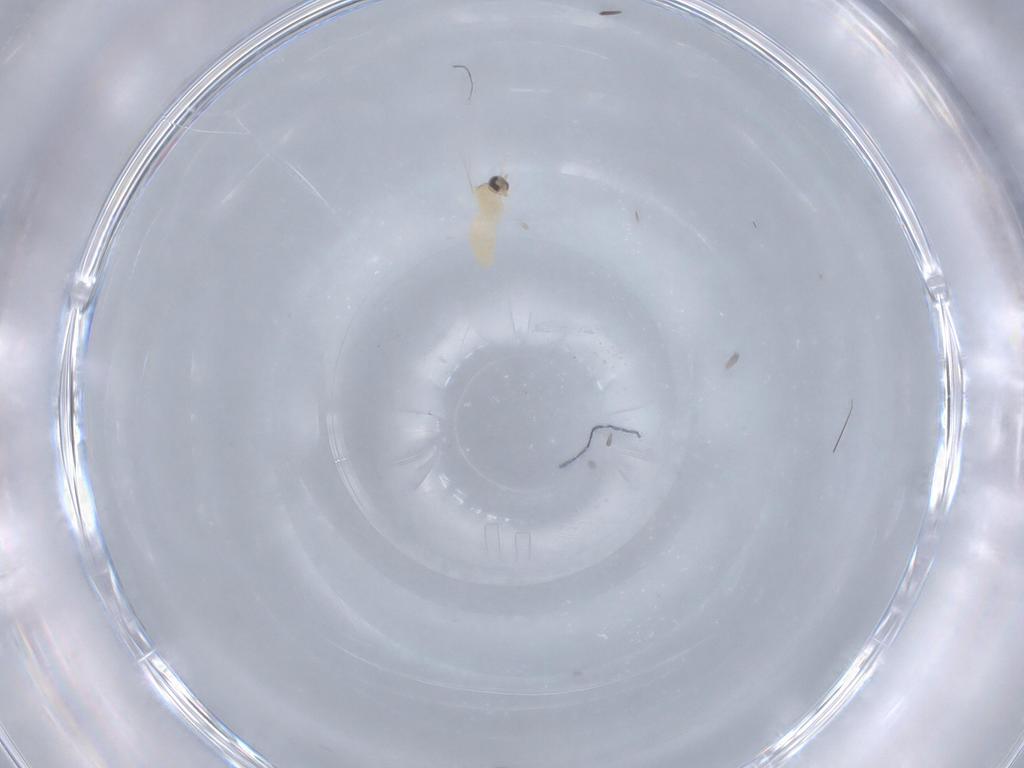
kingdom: Animalia
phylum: Arthropoda
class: Insecta
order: Diptera
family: Cecidomyiidae
